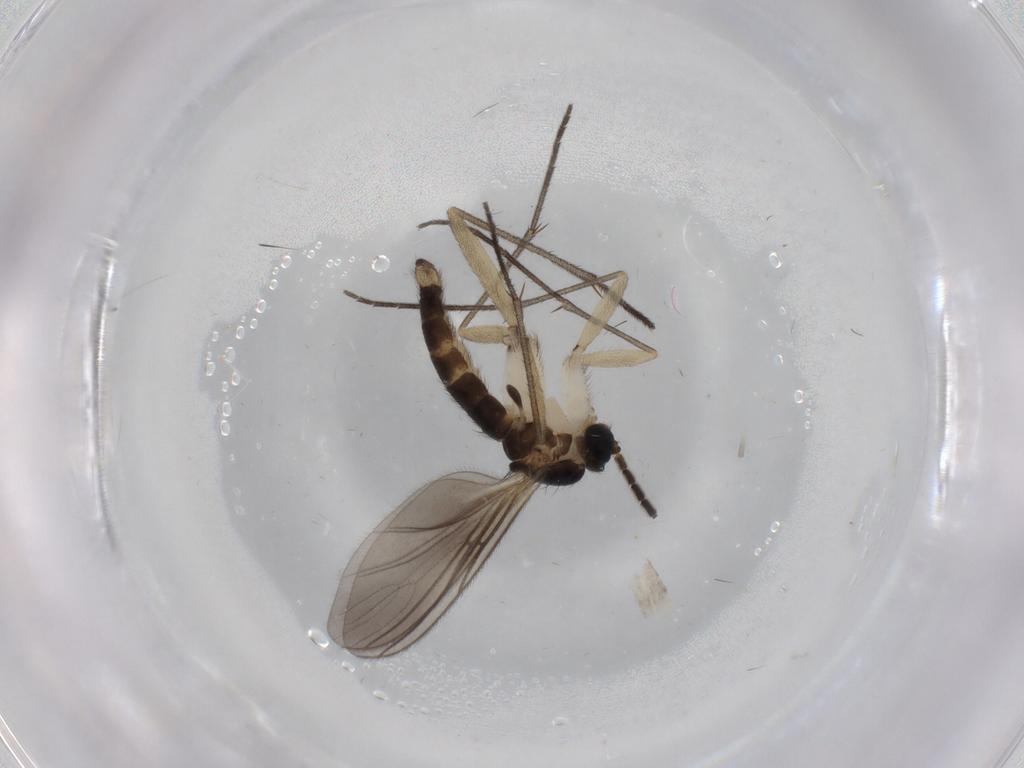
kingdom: Animalia
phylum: Arthropoda
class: Insecta
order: Diptera
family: Sciaridae
